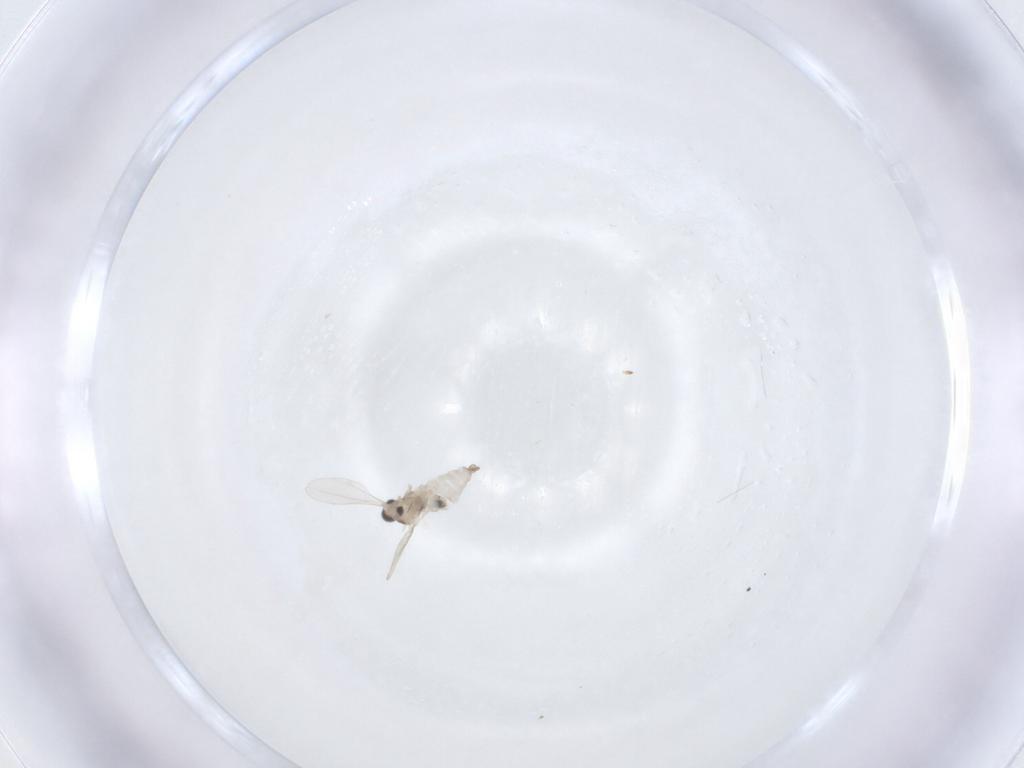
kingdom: Animalia
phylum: Arthropoda
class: Insecta
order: Diptera
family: Cecidomyiidae
